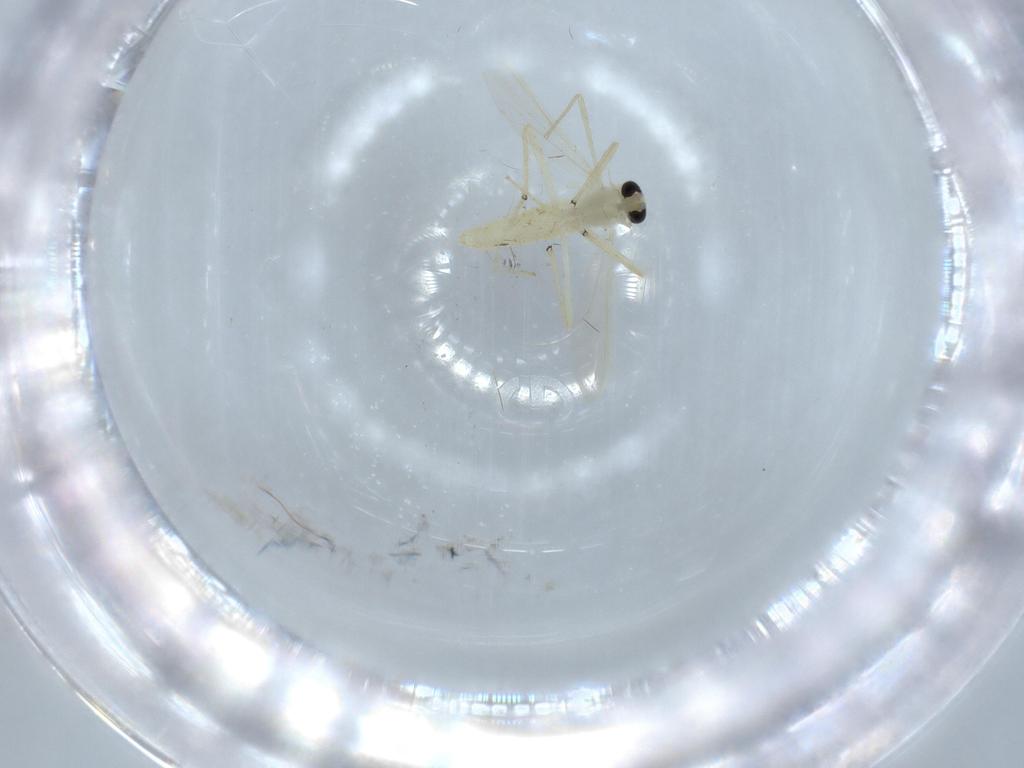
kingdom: Animalia
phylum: Arthropoda
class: Insecta
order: Diptera
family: Chironomidae
